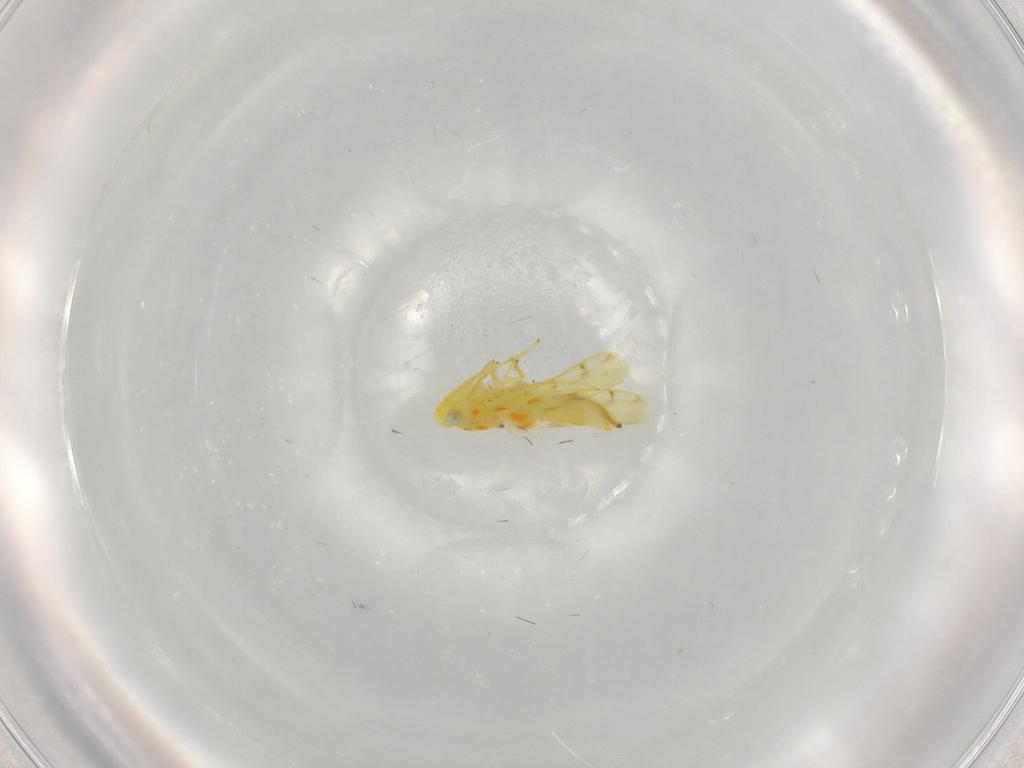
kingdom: Animalia
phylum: Arthropoda
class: Insecta
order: Hemiptera
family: Cicadellidae
